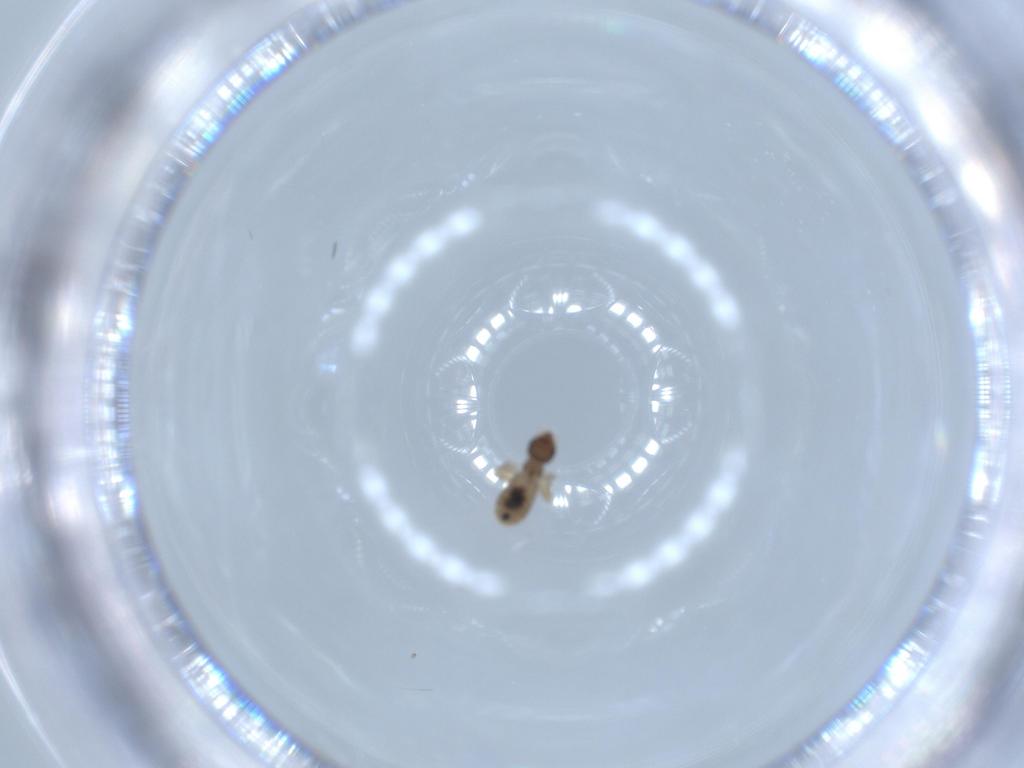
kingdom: Animalia
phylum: Arthropoda
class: Insecta
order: Psocodea
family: Liposcelididae
